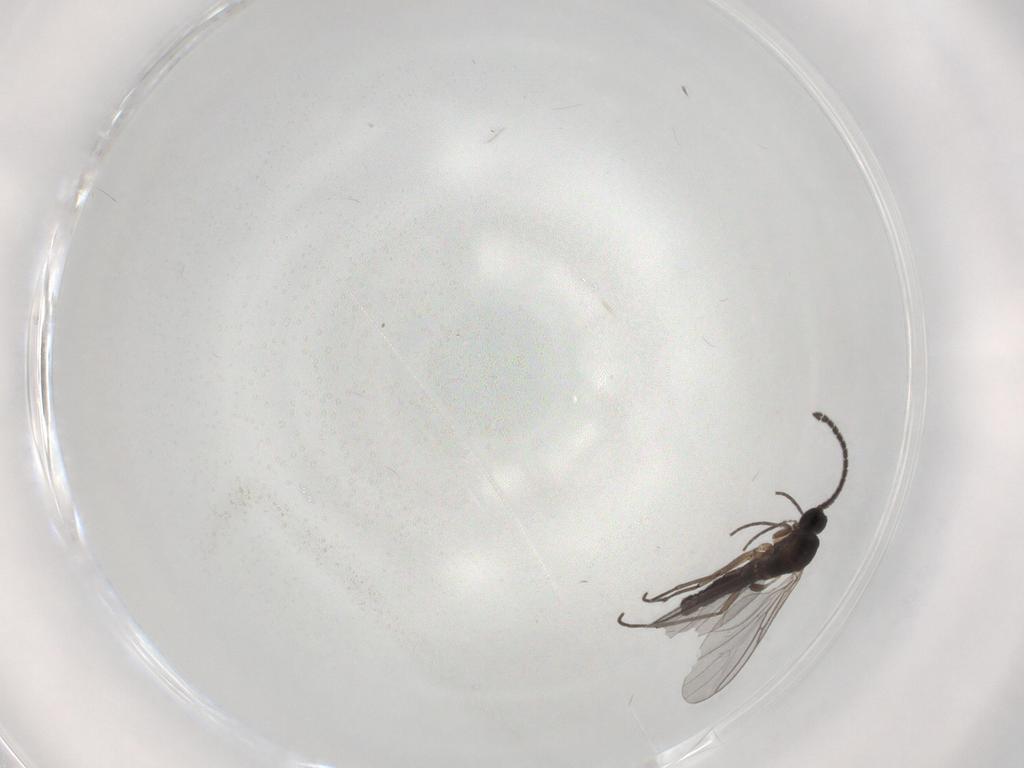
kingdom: Animalia
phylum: Arthropoda
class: Insecta
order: Diptera
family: Sciaridae
